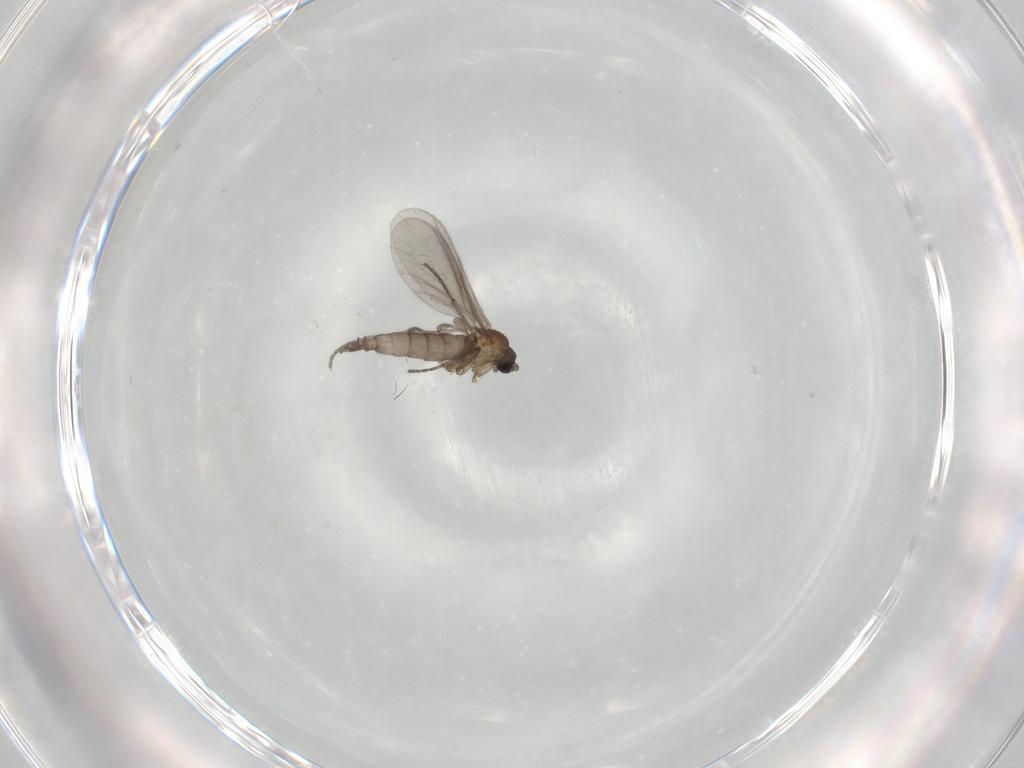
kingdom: Animalia
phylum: Arthropoda
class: Insecta
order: Diptera
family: Sciaridae
